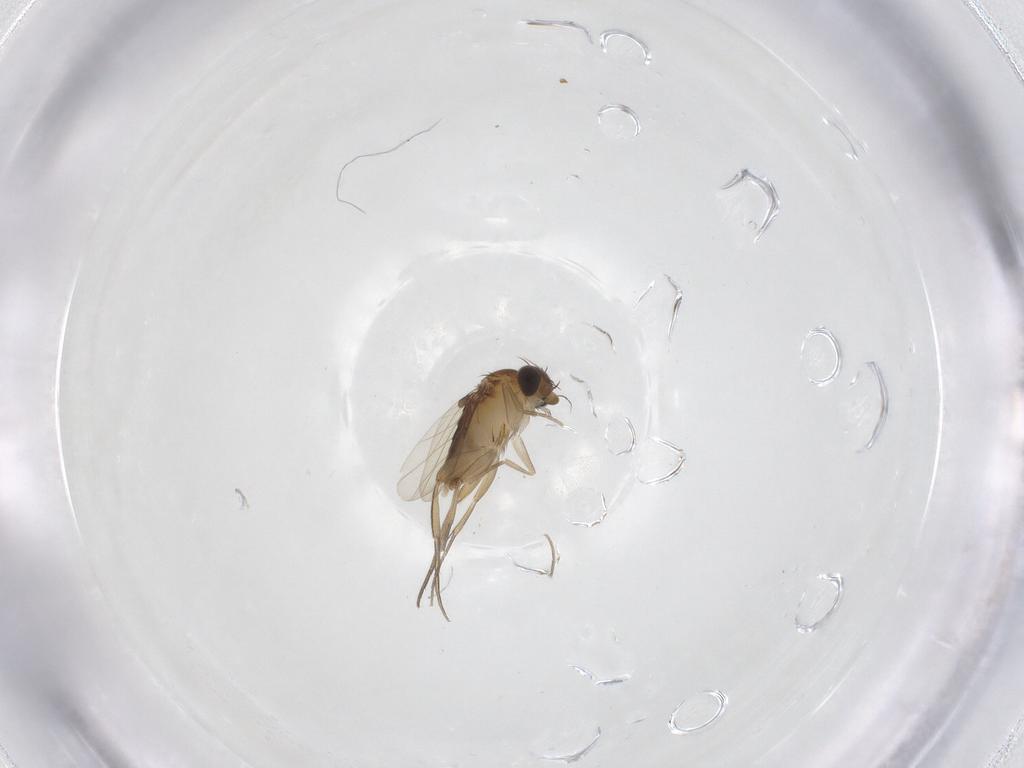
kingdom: Animalia
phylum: Arthropoda
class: Insecta
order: Diptera
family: Phoridae
